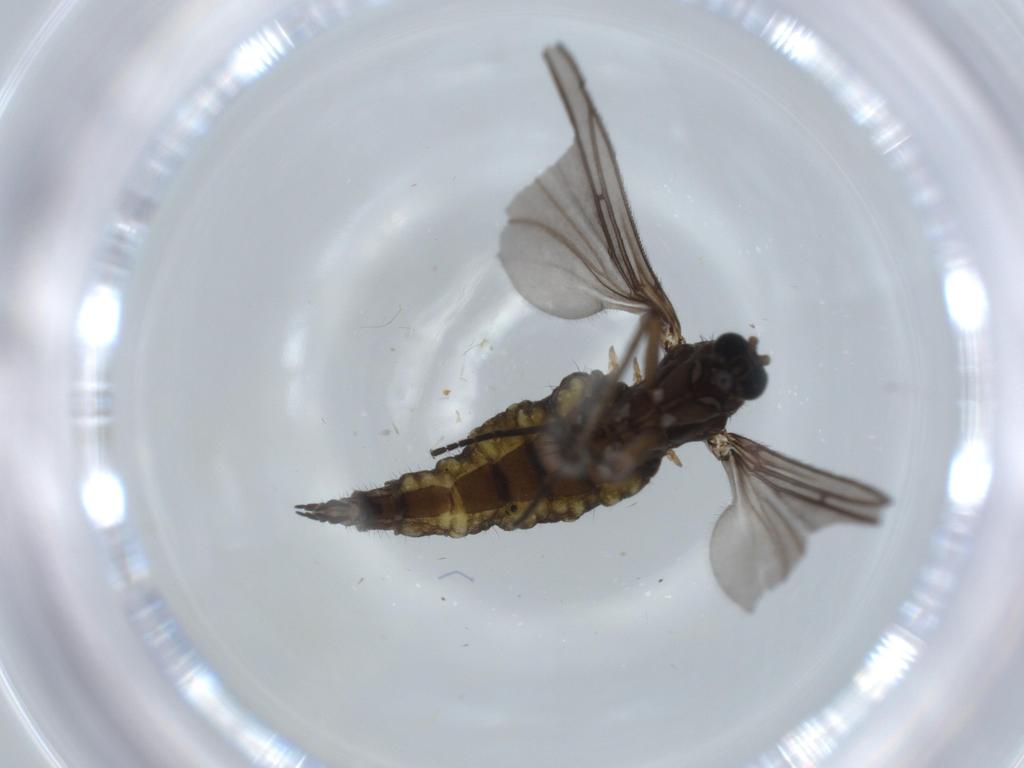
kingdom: Animalia
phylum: Arthropoda
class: Insecta
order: Diptera
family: Sciaridae
